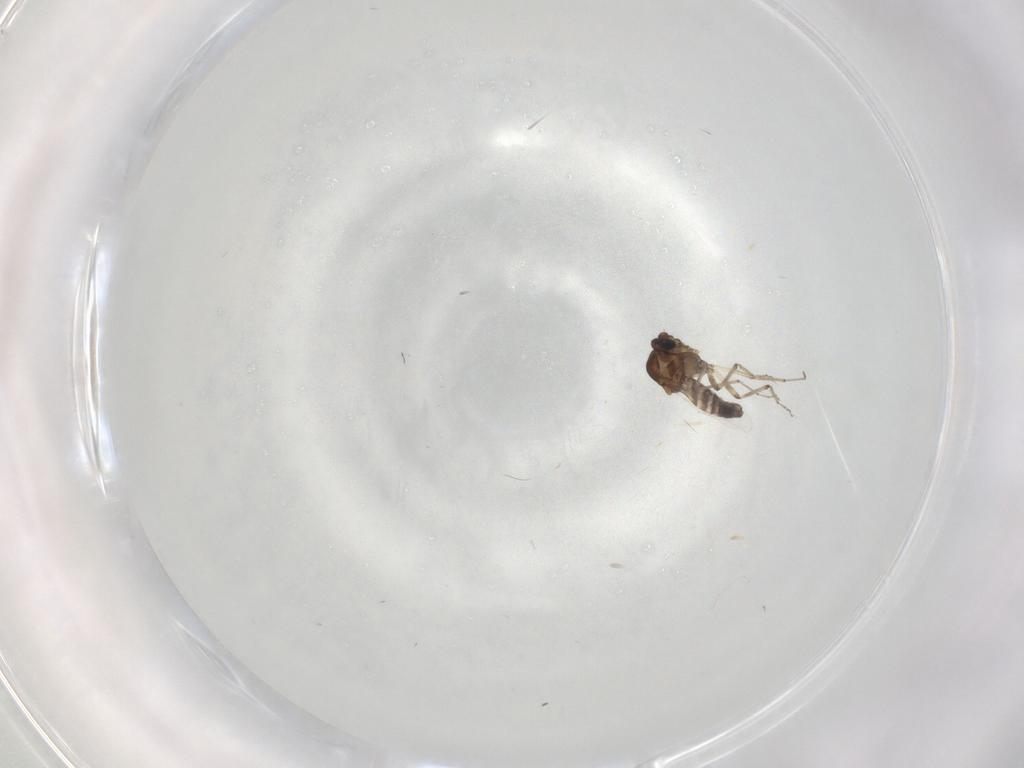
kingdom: Animalia
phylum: Arthropoda
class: Insecta
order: Diptera
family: Ceratopogonidae
